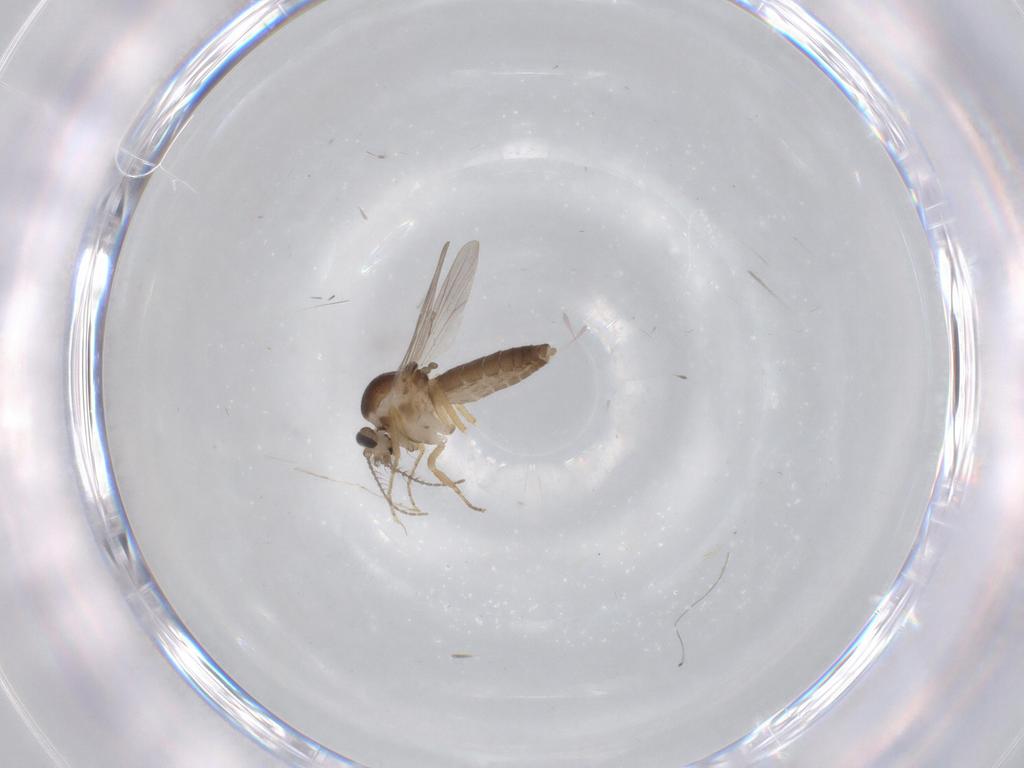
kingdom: Animalia
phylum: Arthropoda
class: Insecta
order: Diptera
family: Ceratopogonidae
